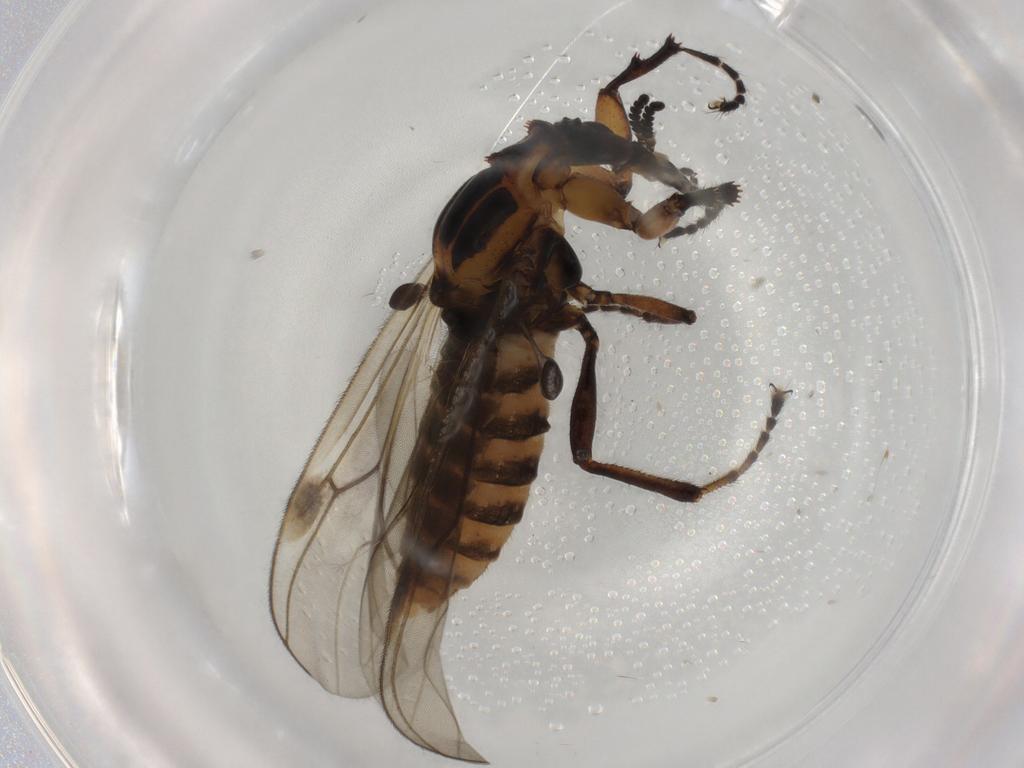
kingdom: Animalia
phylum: Arthropoda
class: Insecta
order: Diptera
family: Bibionidae
